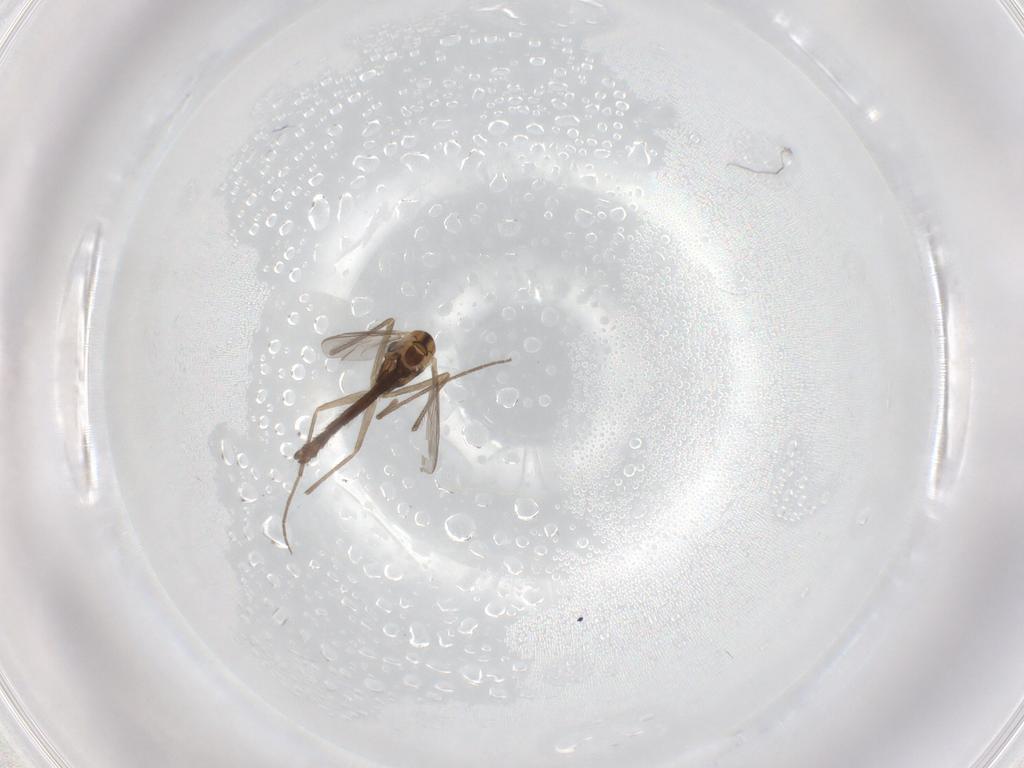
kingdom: Animalia
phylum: Arthropoda
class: Insecta
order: Diptera
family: Chironomidae
